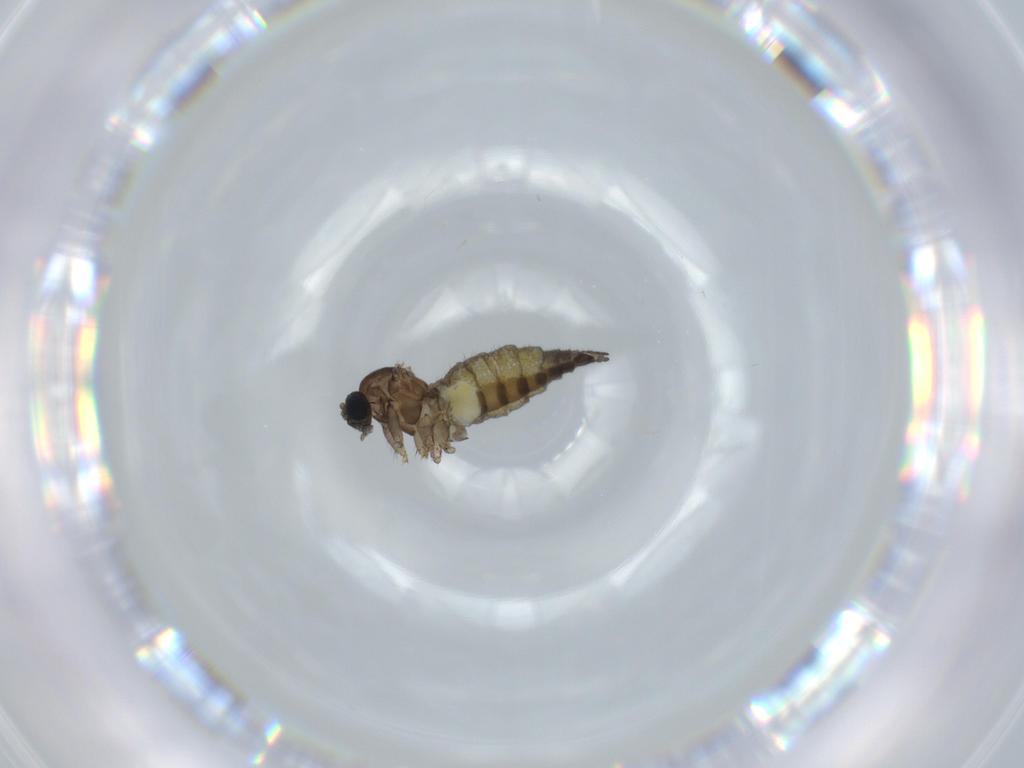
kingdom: Animalia
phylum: Arthropoda
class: Insecta
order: Diptera
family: Sciaridae
